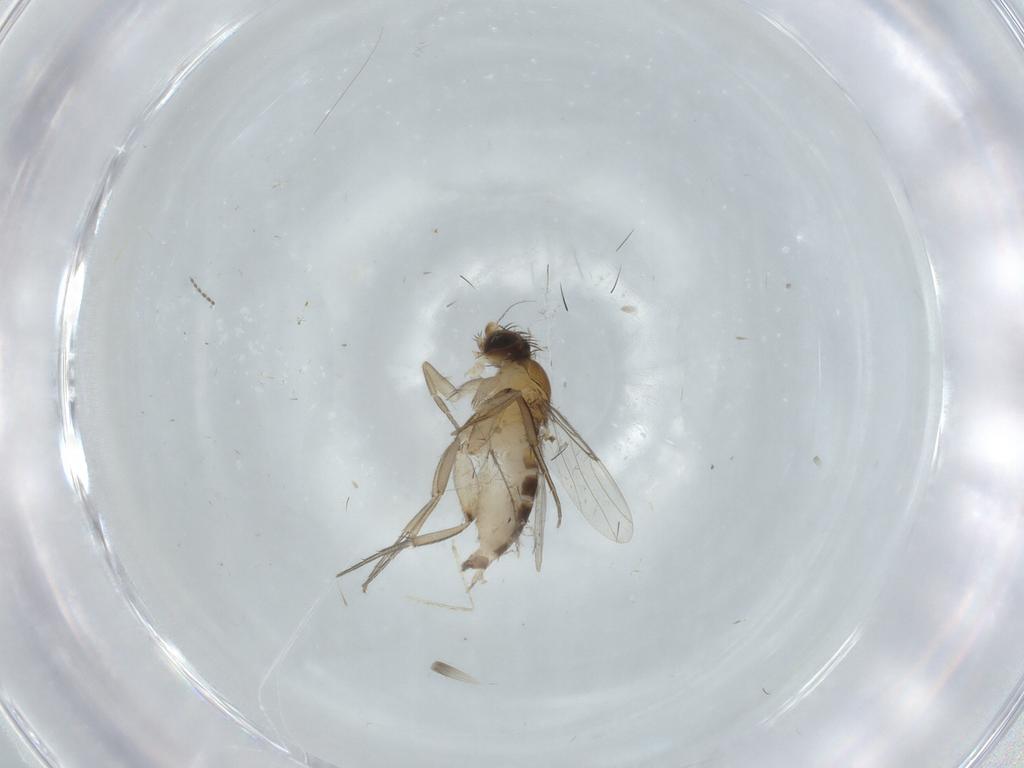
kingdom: Animalia
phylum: Arthropoda
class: Insecta
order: Diptera
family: Phoridae
